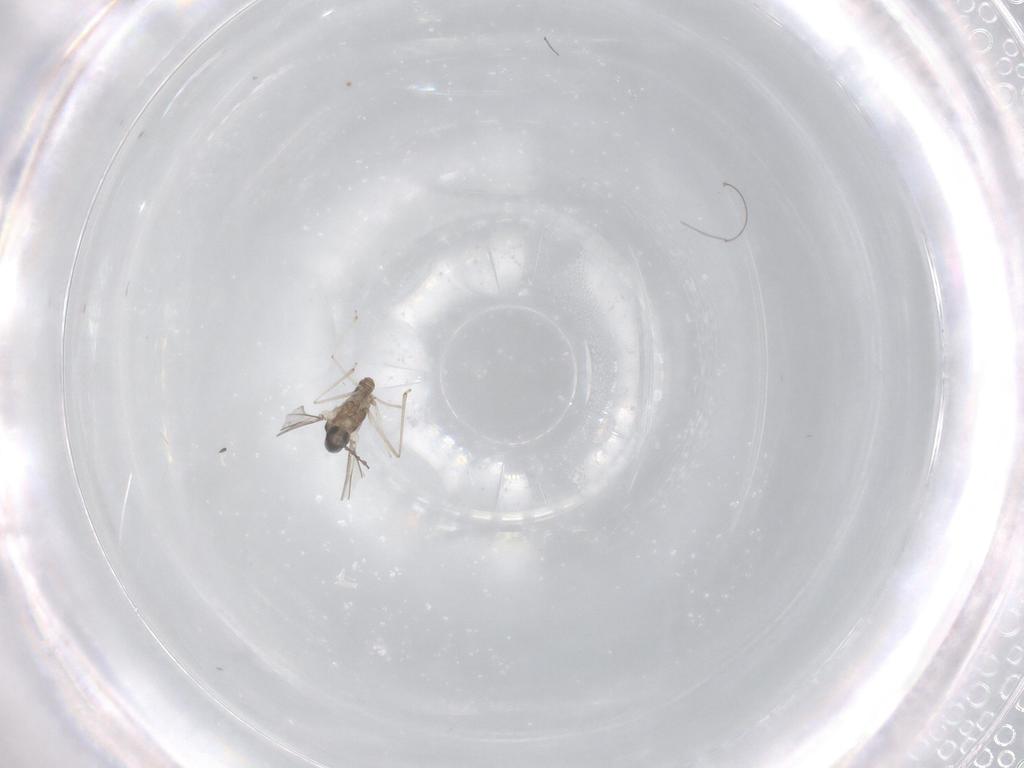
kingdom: Animalia
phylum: Arthropoda
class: Insecta
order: Diptera
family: Cecidomyiidae
